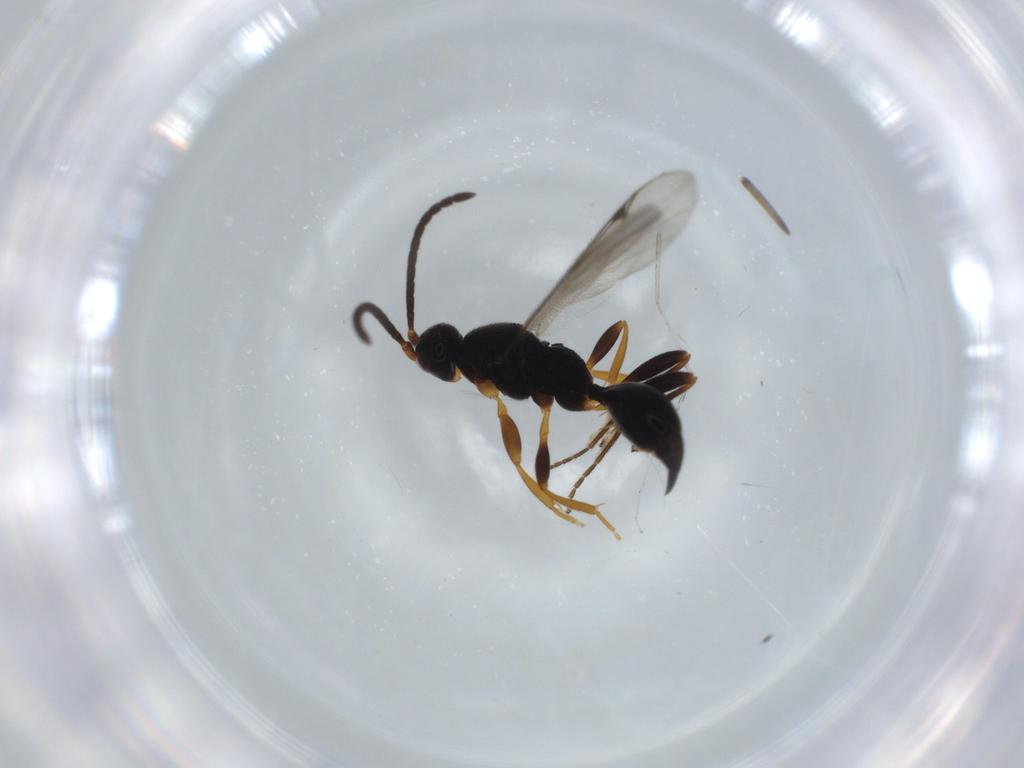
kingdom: Animalia
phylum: Arthropoda
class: Insecta
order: Hymenoptera
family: Proctotrupidae
